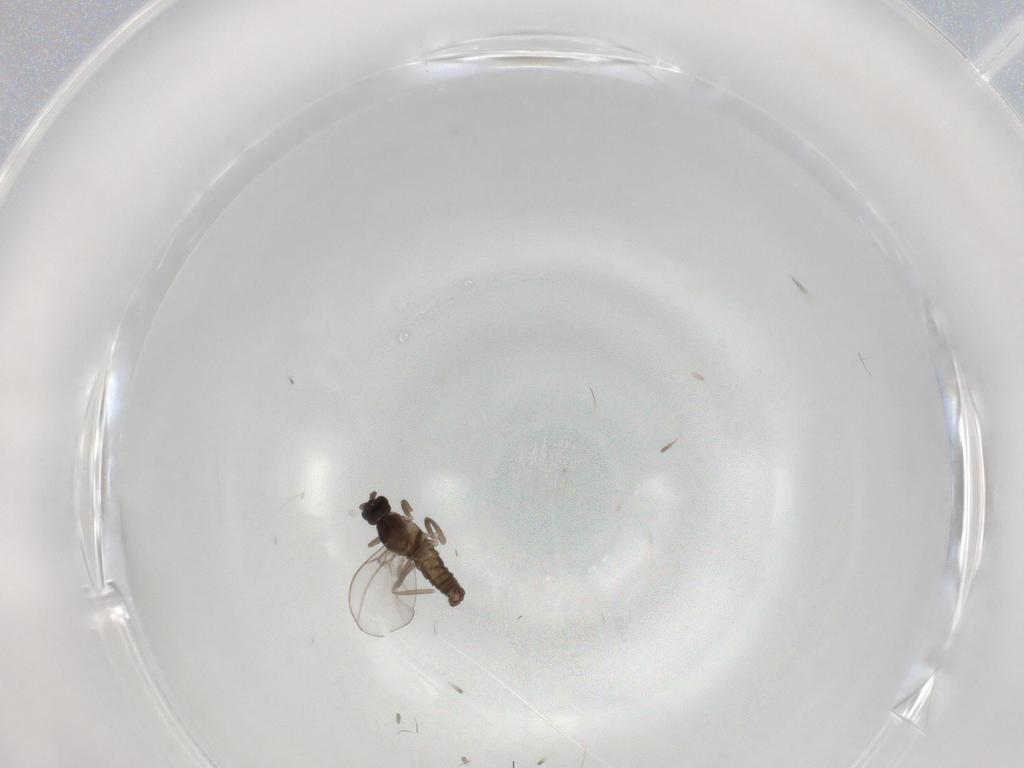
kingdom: Animalia
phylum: Arthropoda
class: Insecta
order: Diptera
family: Cecidomyiidae
